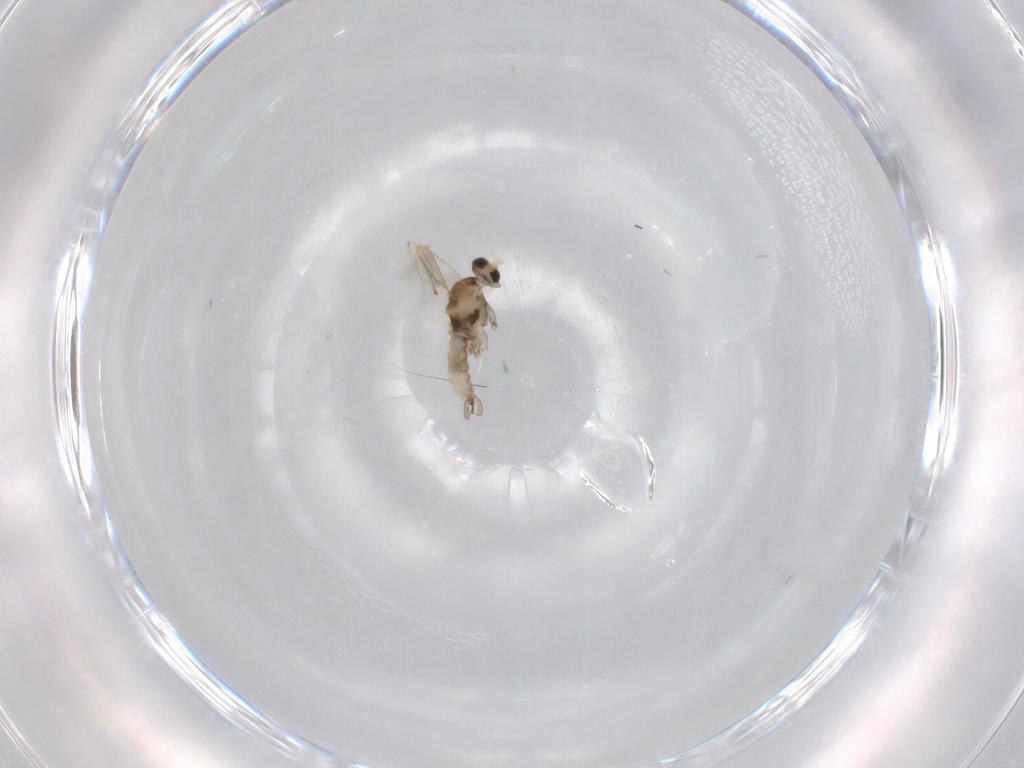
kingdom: Animalia
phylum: Arthropoda
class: Insecta
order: Diptera
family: Cecidomyiidae
